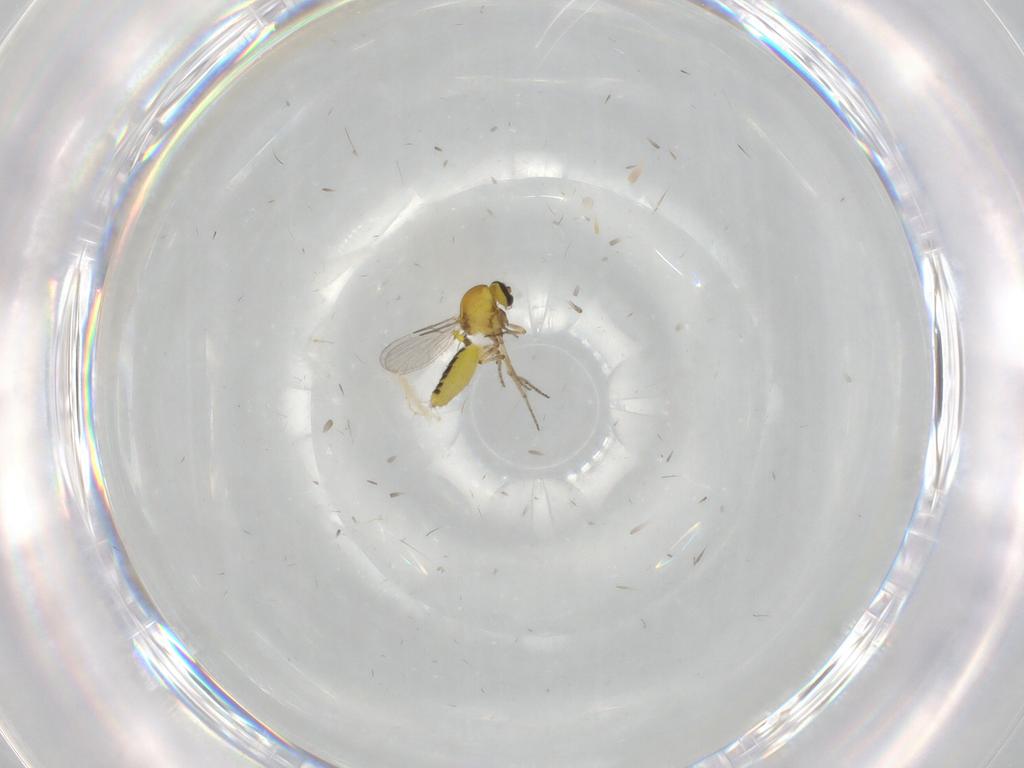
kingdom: Animalia
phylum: Arthropoda
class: Insecta
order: Diptera
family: Ceratopogonidae
